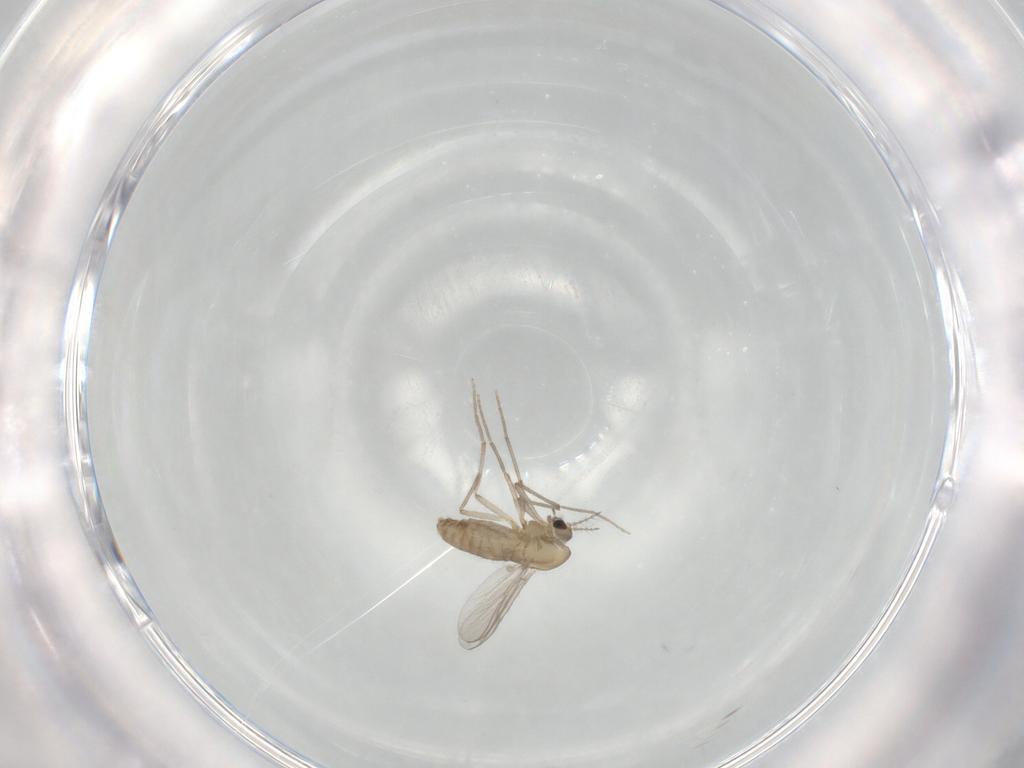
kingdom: Animalia
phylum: Arthropoda
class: Insecta
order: Diptera
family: Chironomidae
